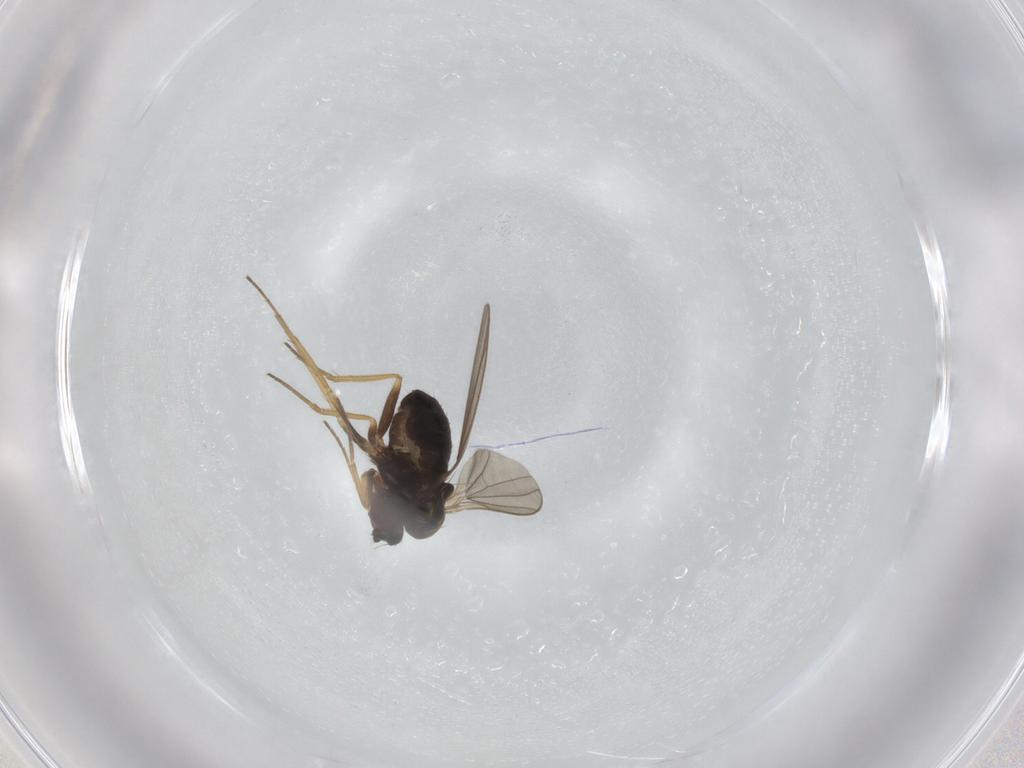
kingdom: Animalia
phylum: Arthropoda
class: Insecta
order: Diptera
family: Dolichopodidae
